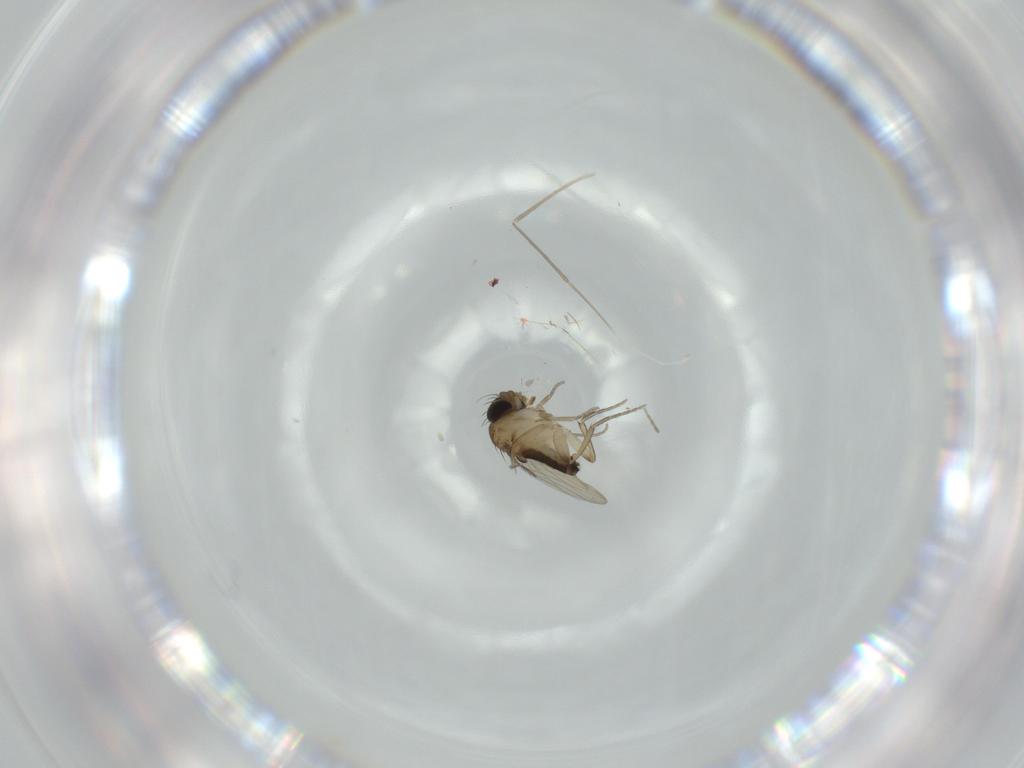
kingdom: Animalia
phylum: Arthropoda
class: Insecta
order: Diptera
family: Phoridae
